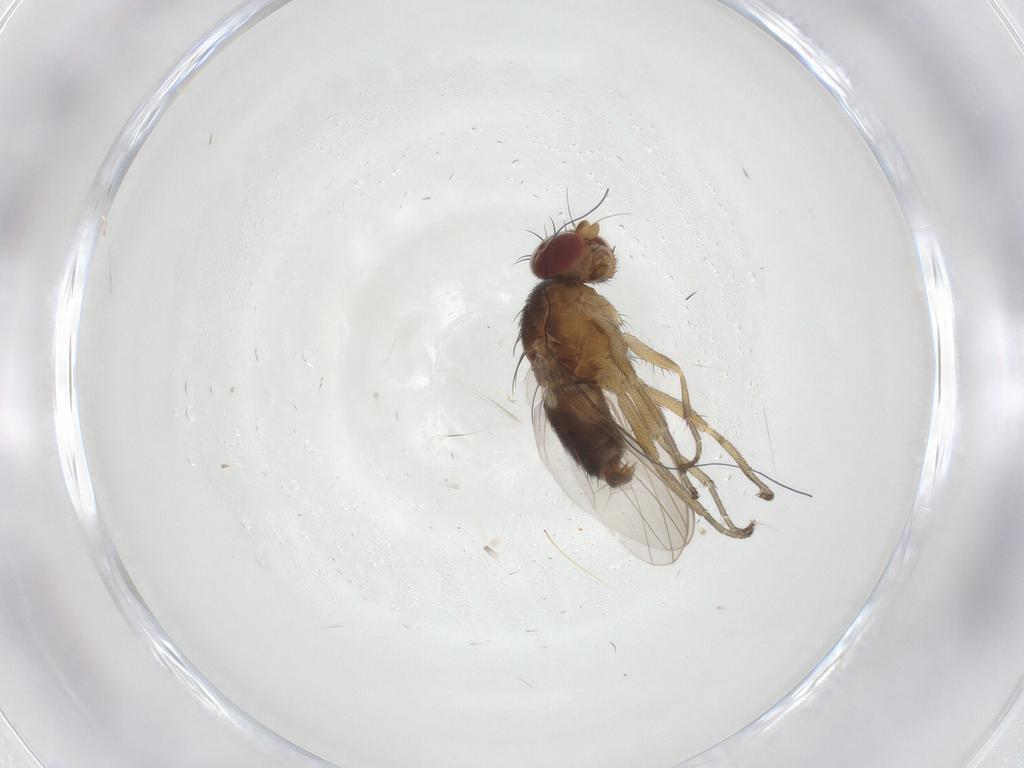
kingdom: Animalia
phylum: Arthropoda
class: Insecta
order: Diptera
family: Heleomyzidae
